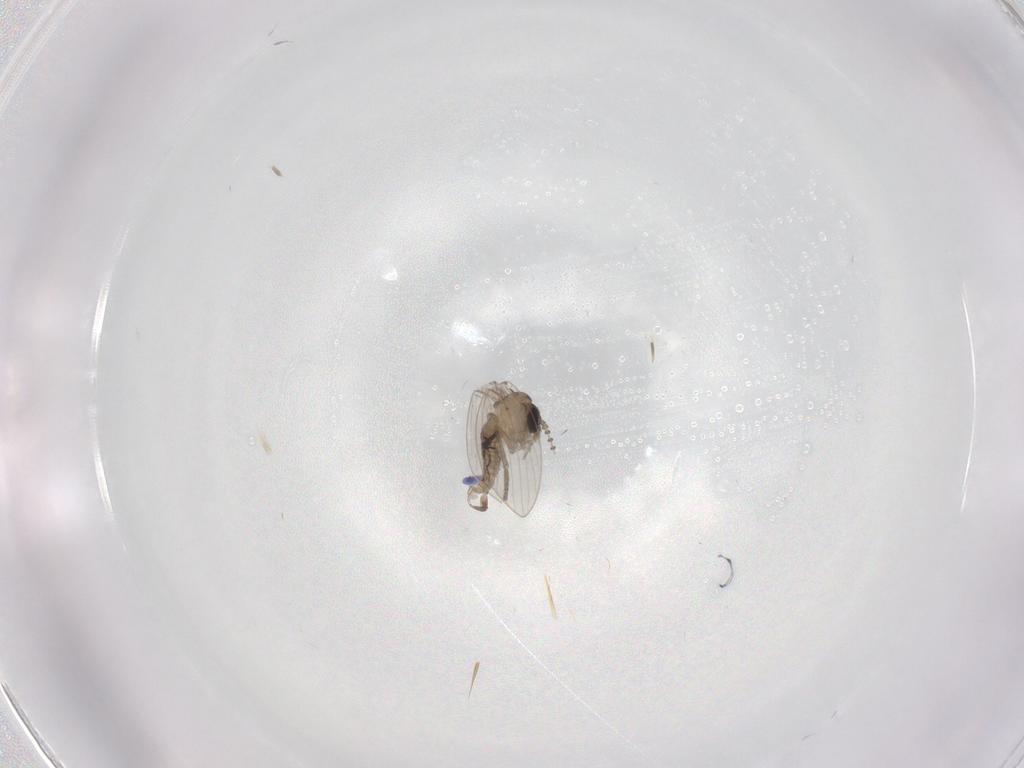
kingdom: Animalia
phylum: Arthropoda
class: Insecta
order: Diptera
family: Psychodidae
